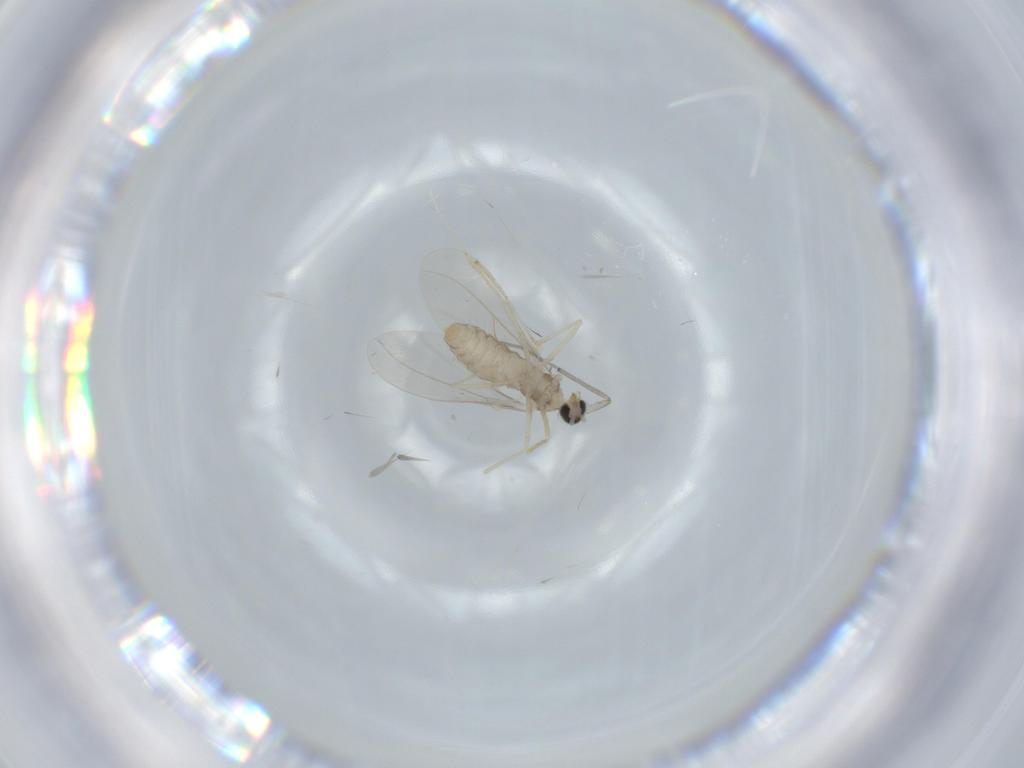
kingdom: Animalia
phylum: Arthropoda
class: Insecta
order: Diptera
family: Cecidomyiidae
